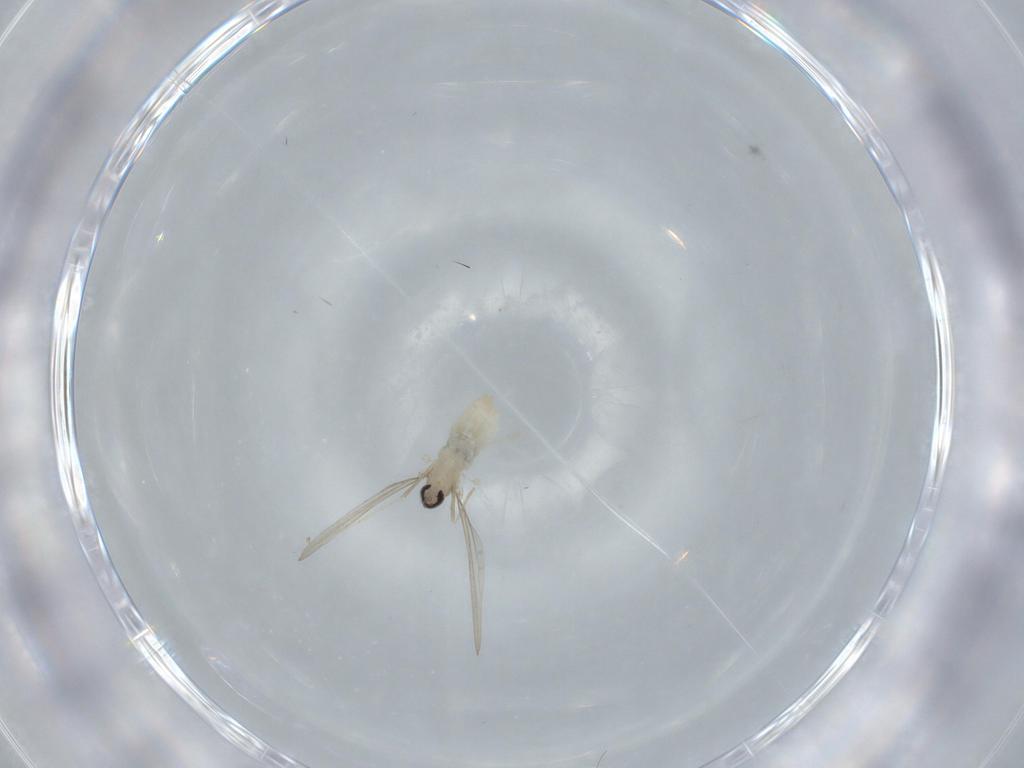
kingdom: Animalia
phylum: Arthropoda
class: Insecta
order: Diptera
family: Cecidomyiidae
